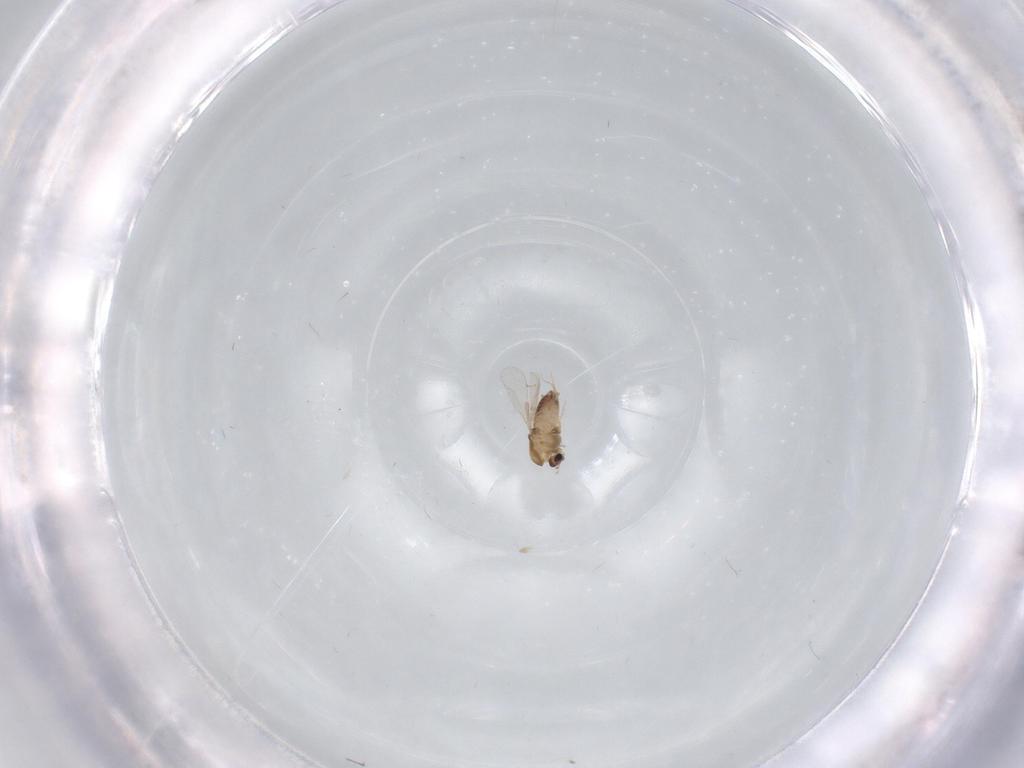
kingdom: Animalia
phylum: Arthropoda
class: Insecta
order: Diptera
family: Chironomidae
